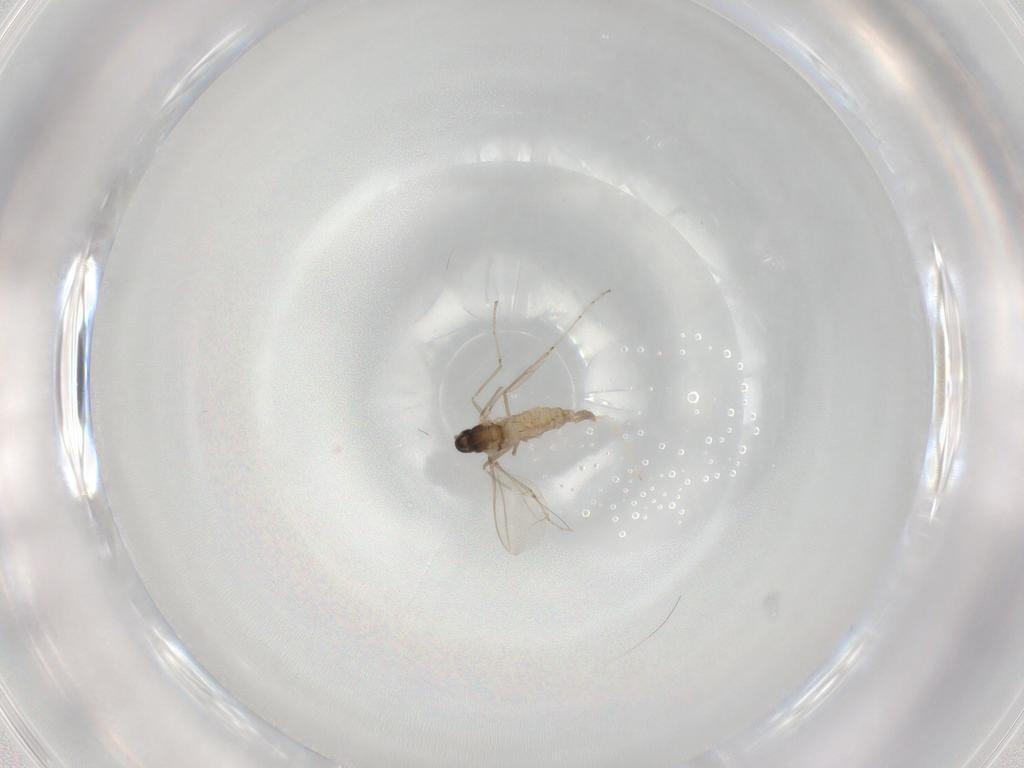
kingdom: Animalia
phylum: Arthropoda
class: Insecta
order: Diptera
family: Cecidomyiidae
